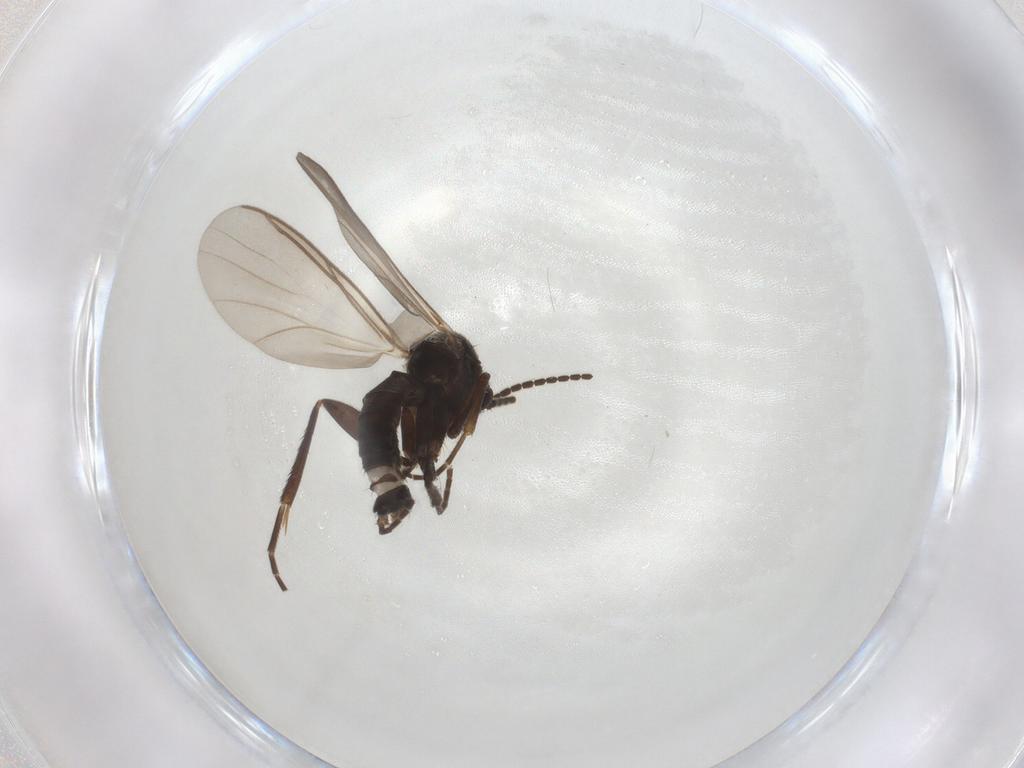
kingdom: Animalia
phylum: Arthropoda
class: Insecta
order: Diptera
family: Mycetophilidae
